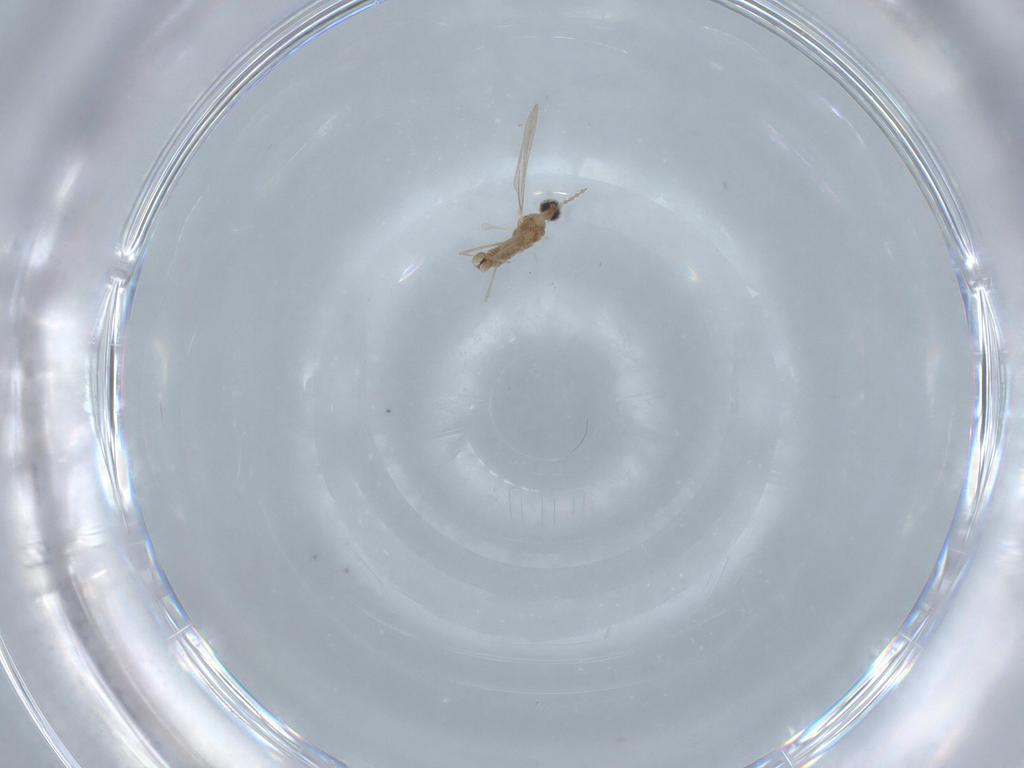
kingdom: Animalia
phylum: Arthropoda
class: Insecta
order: Diptera
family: Cecidomyiidae
